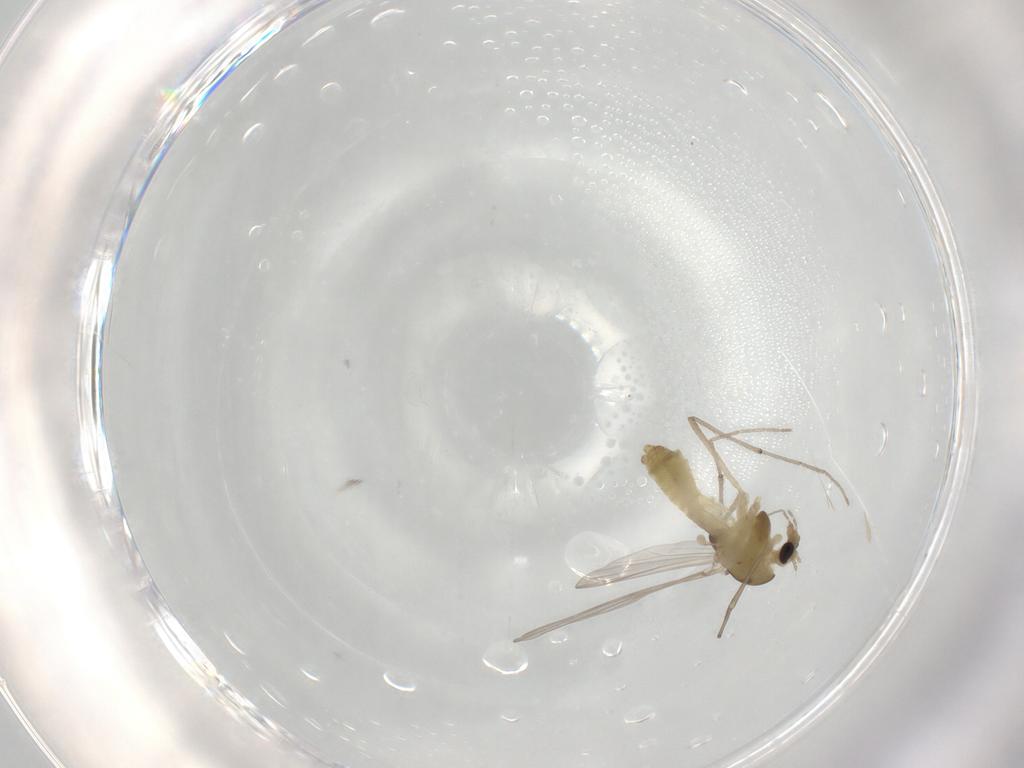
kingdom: Animalia
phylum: Arthropoda
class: Insecta
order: Diptera
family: Chironomidae
